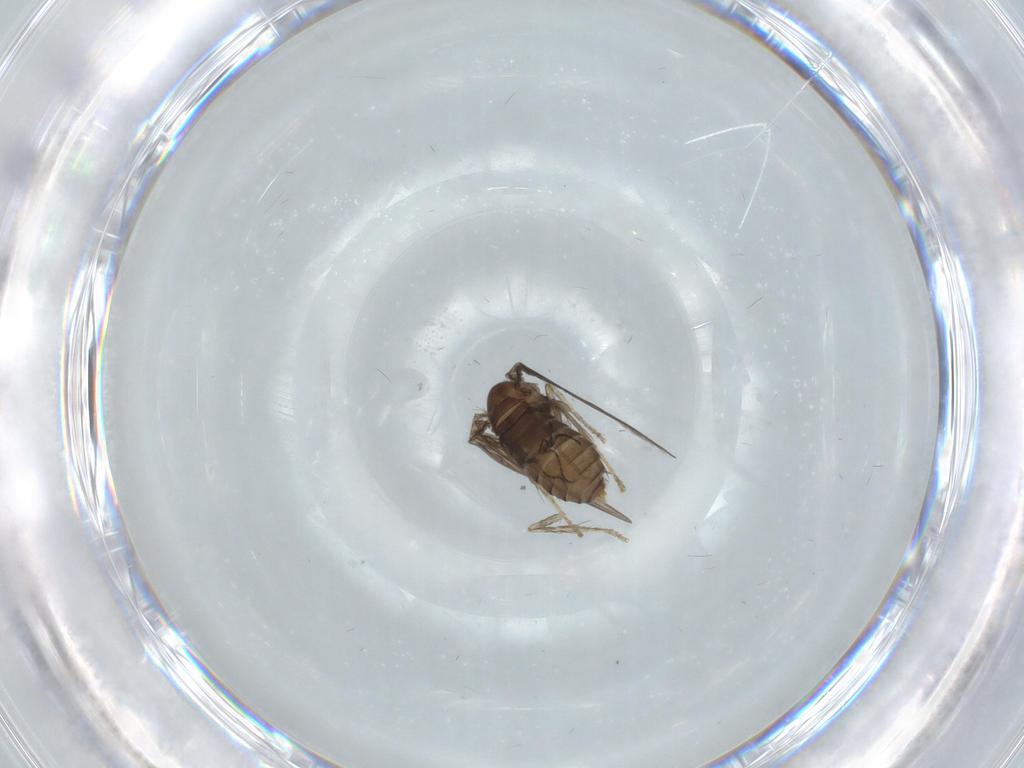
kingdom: Animalia
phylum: Arthropoda
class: Insecta
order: Diptera
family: Psychodidae
